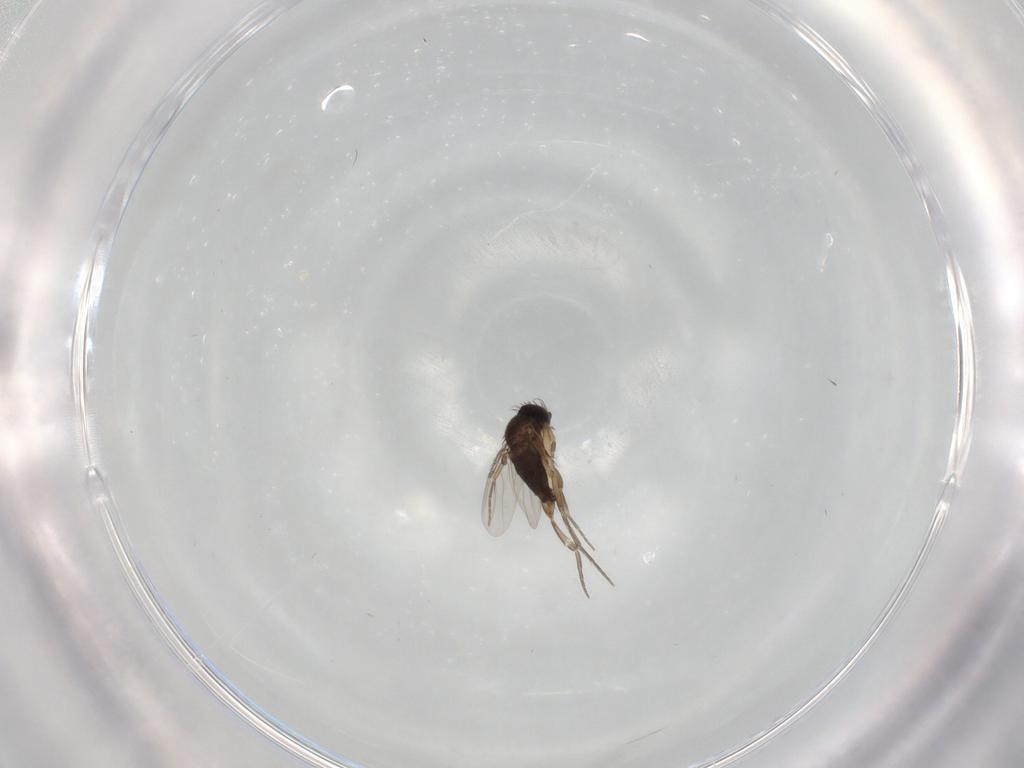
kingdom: Animalia
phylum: Arthropoda
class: Insecta
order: Diptera
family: Phoridae
